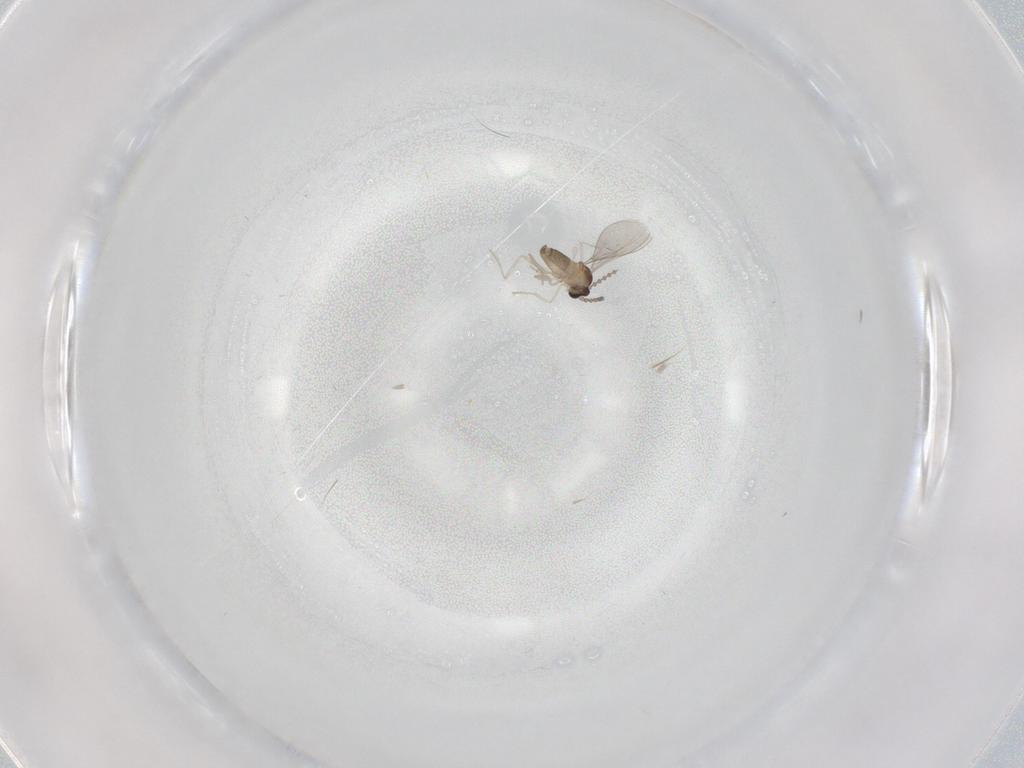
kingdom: Animalia
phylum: Arthropoda
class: Insecta
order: Diptera
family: Cecidomyiidae
